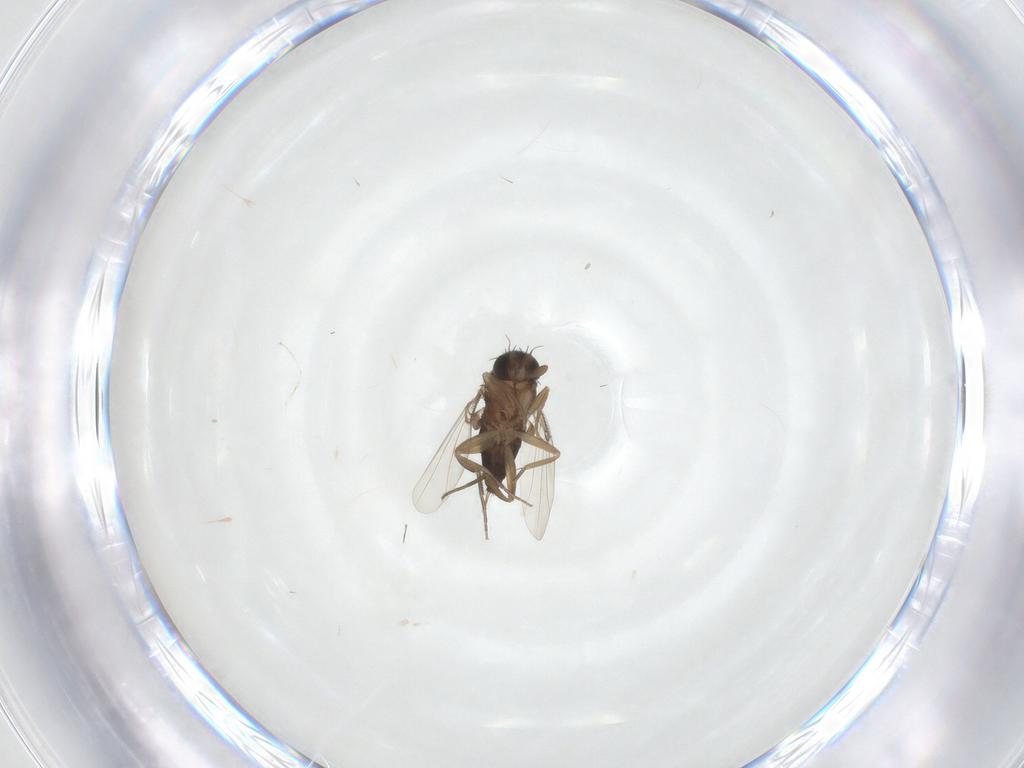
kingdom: Animalia
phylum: Arthropoda
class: Insecta
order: Diptera
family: Phoridae
